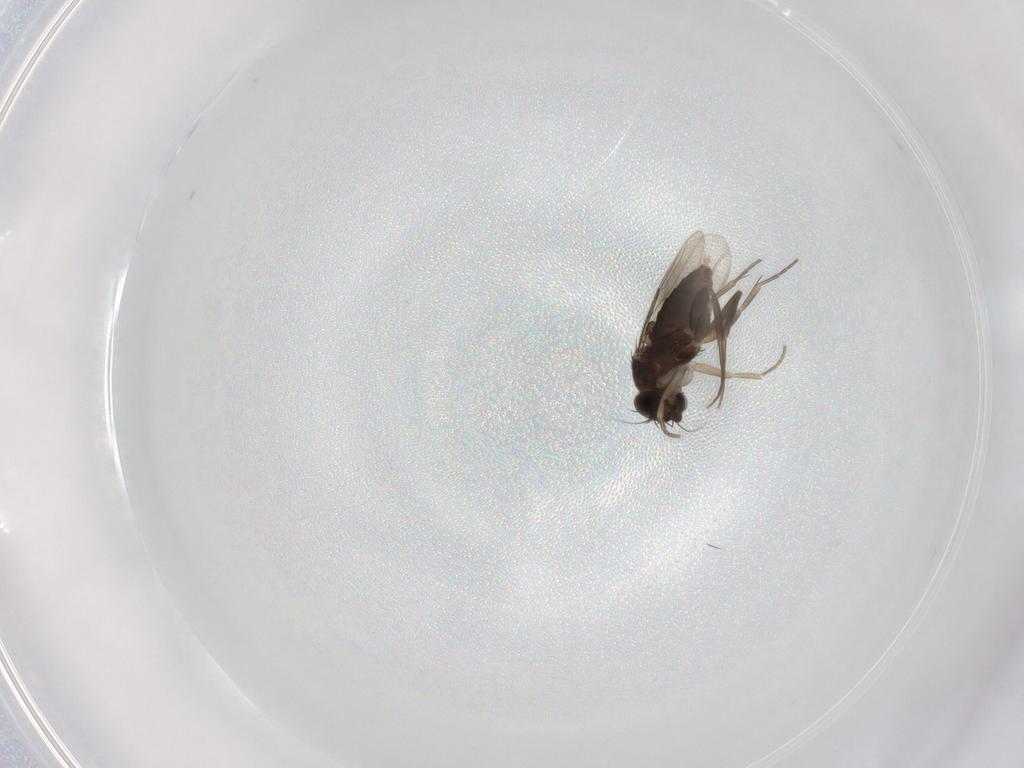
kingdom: Animalia
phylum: Arthropoda
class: Insecta
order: Diptera
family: Phoridae
